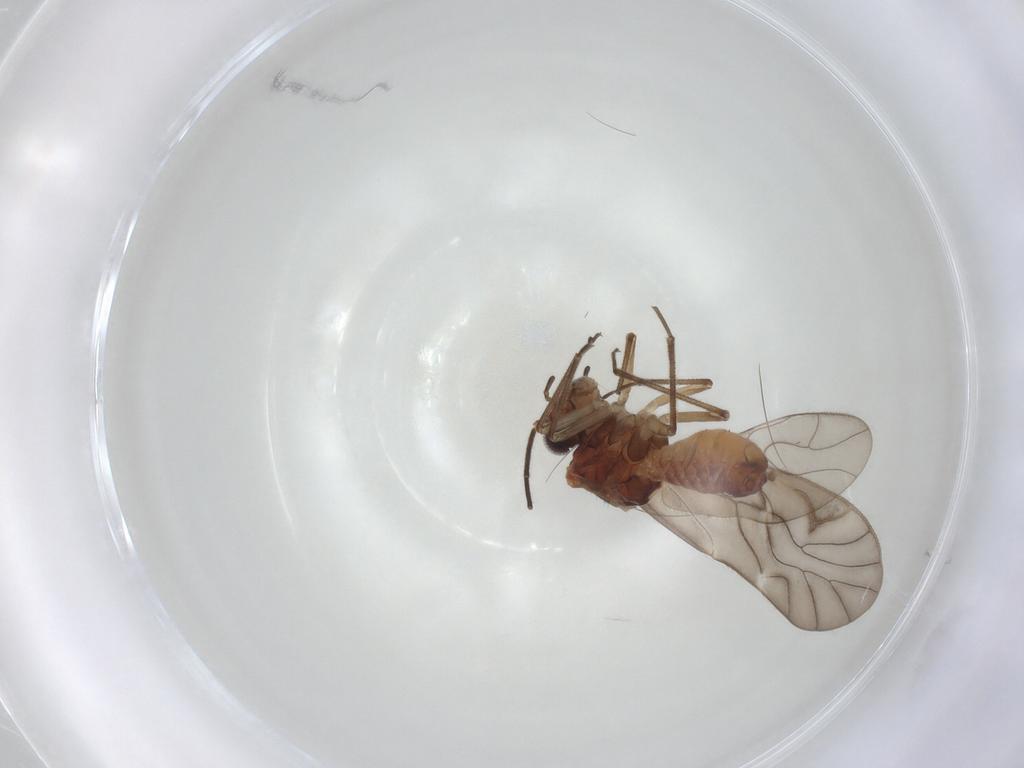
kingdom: Animalia
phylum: Arthropoda
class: Insecta
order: Psocodea
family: Caeciliusidae
